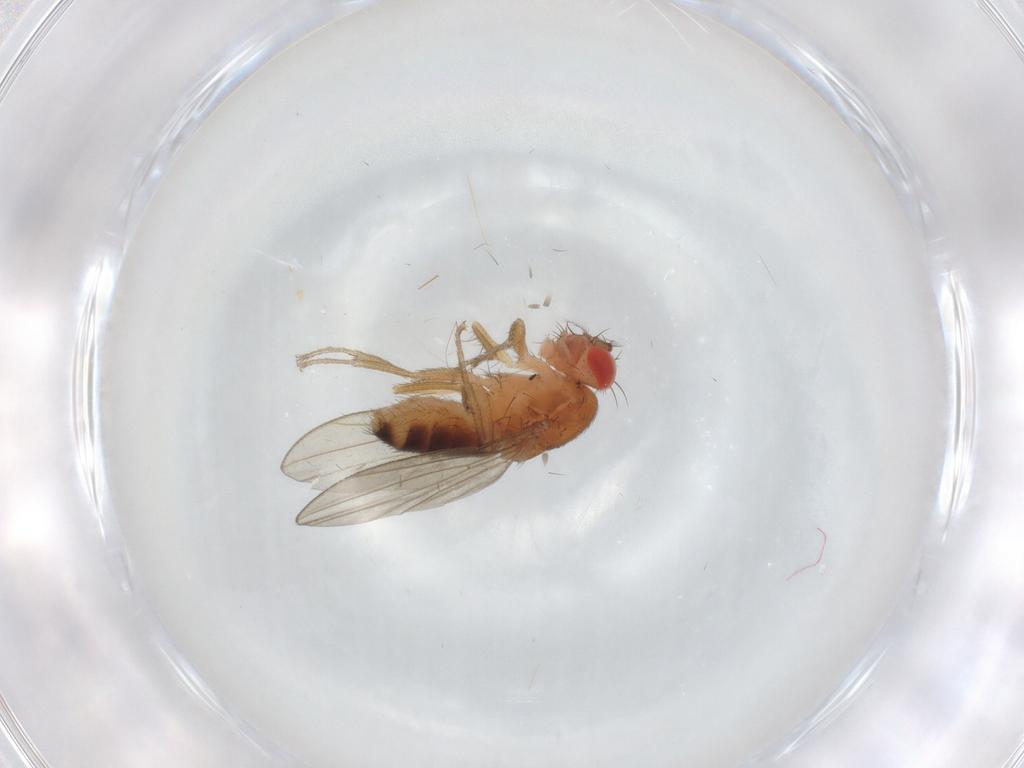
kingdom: Animalia
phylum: Arthropoda
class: Insecta
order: Diptera
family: Drosophilidae
